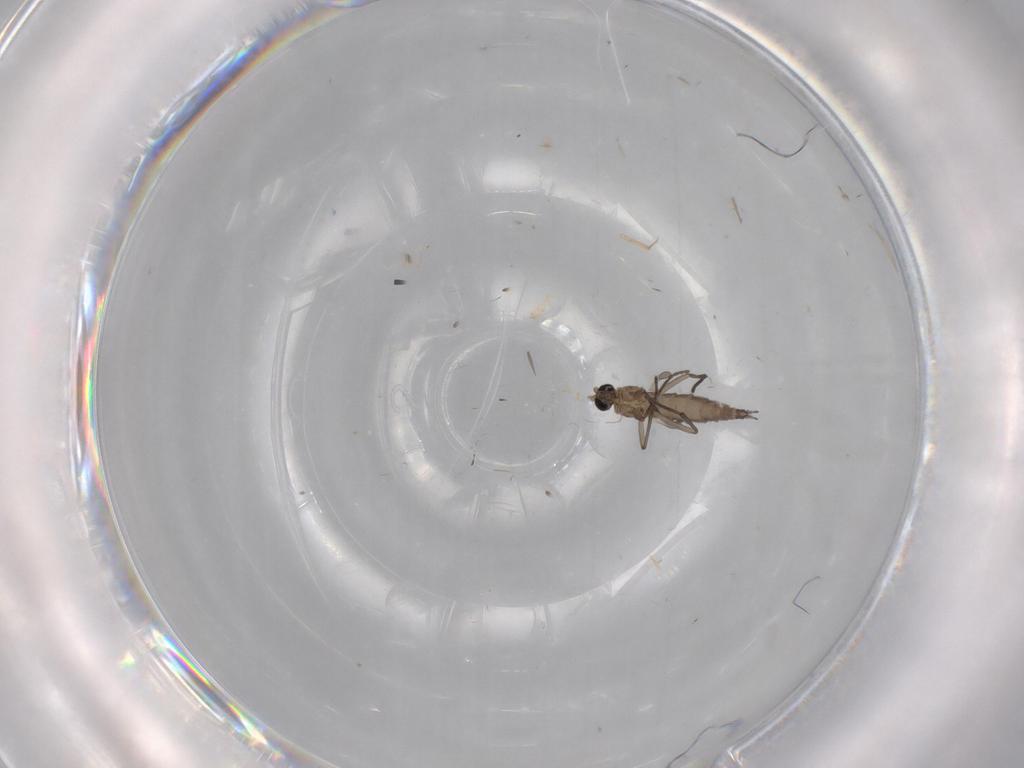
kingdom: Animalia
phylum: Arthropoda
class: Insecta
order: Diptera
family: Sciaridae
